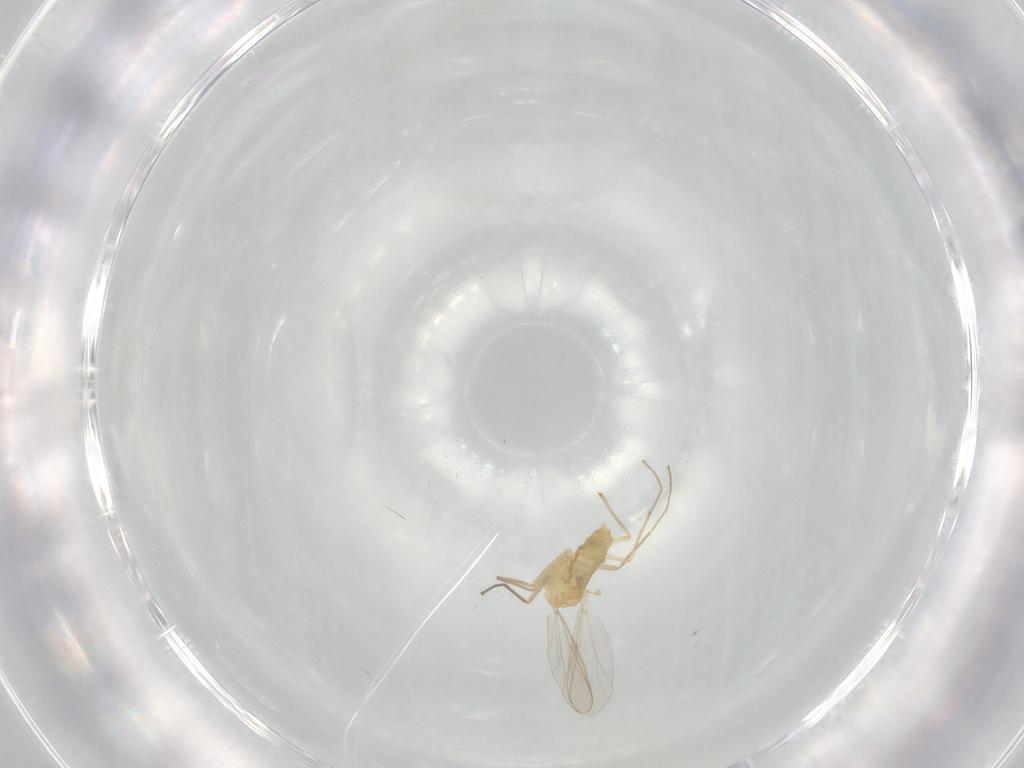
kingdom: Animalia
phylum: Arthropoda
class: Insecta
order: Diptera
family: Chironomidae
